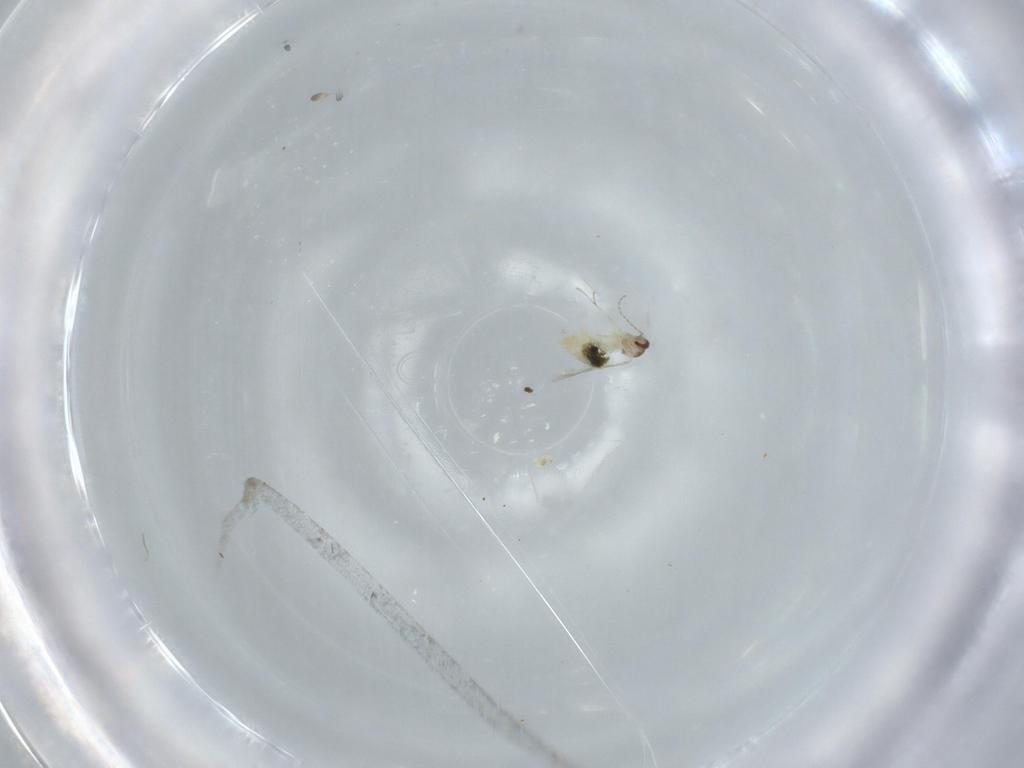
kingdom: Animalia
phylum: Arthropoda
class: Insecta
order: Diptera
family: Cecidomyiidae
